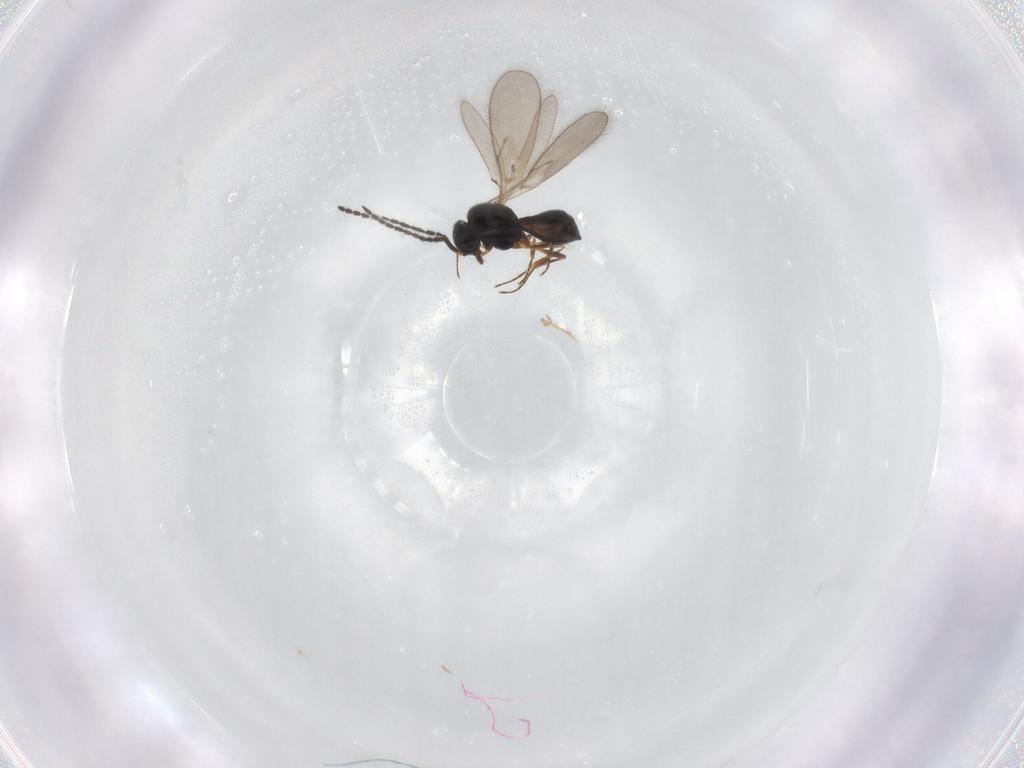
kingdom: Animalia
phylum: Arthropoda
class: Insecta
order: Hymenoptera
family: Scelionidae
